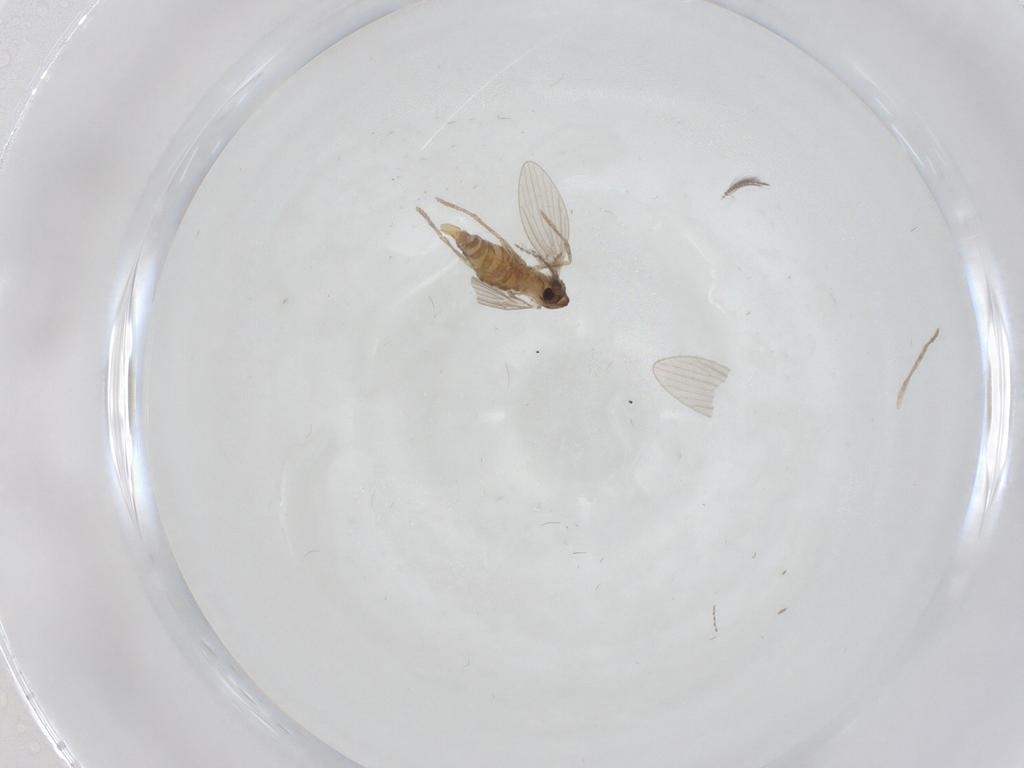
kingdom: Animalia
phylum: Arthropoda
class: Insecta
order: Diptera
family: Psychodidae
